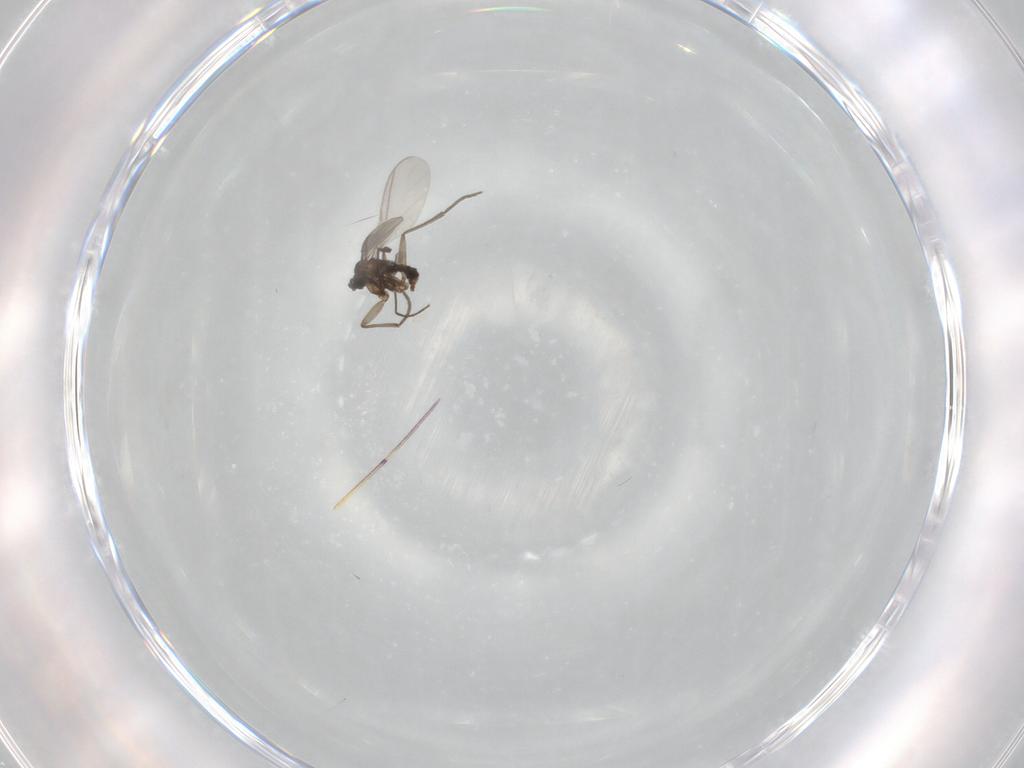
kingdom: Animalia
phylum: Arthropoda
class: Insecta
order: Diptera
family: Sciaridae
